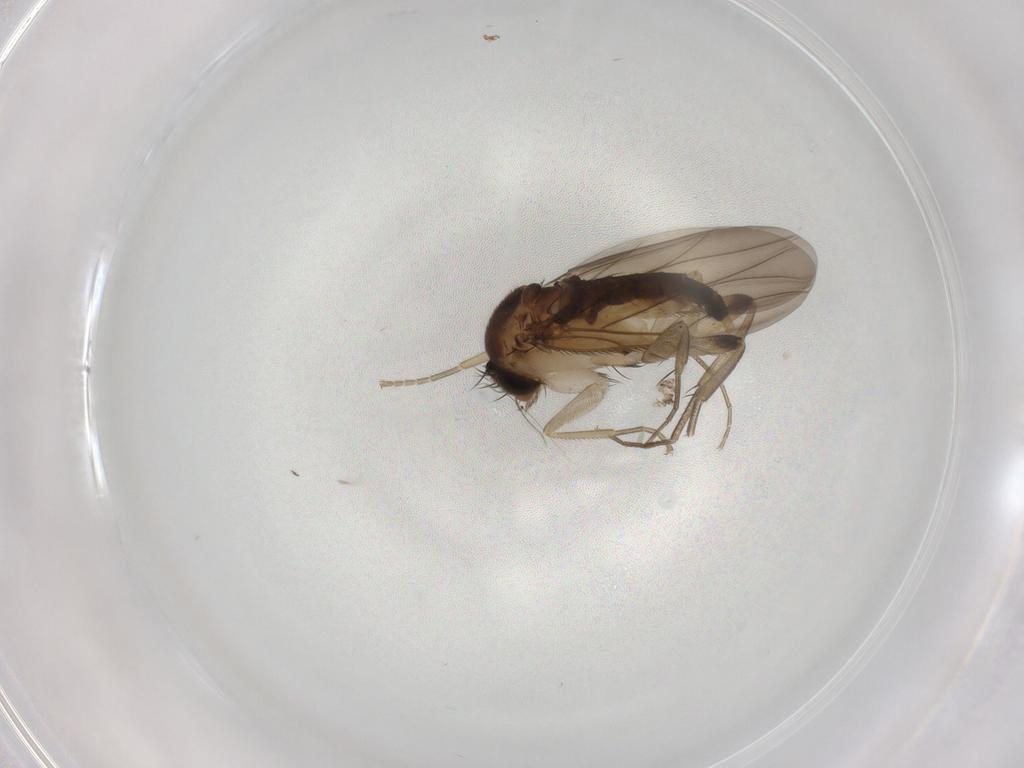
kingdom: Animalia
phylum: Arthropoda
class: Insecta
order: Diptera
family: Phoridae
